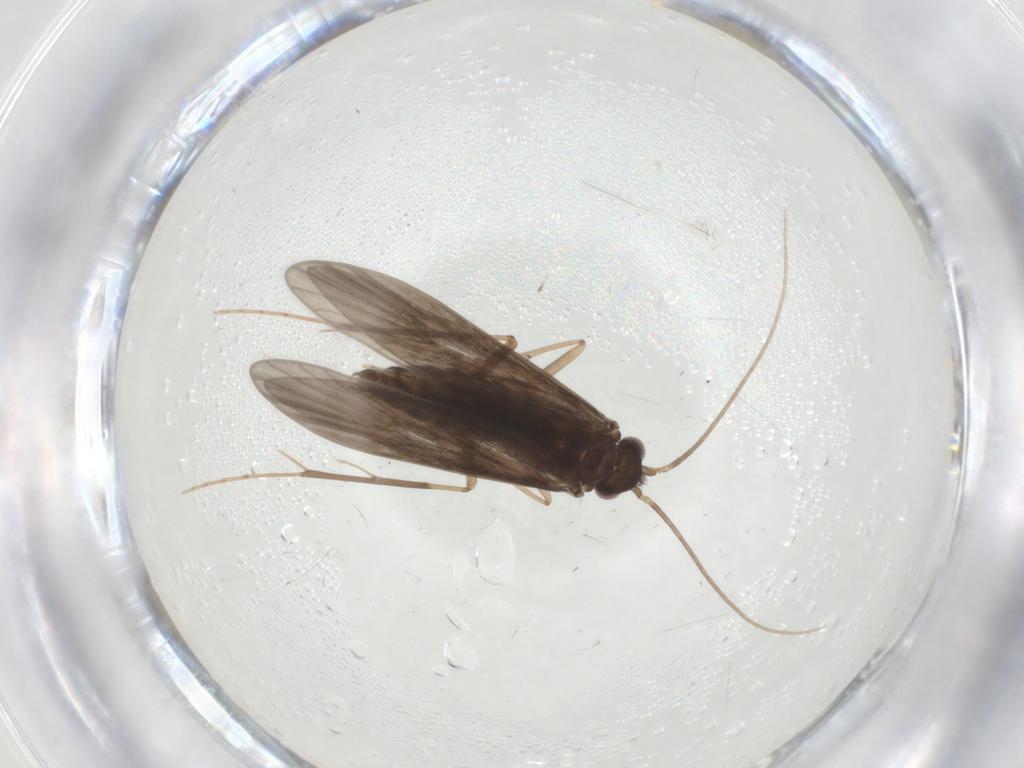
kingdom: Animalia
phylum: Arthropoda
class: Insecta
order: Trichoptera
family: Xiphocentronidae
